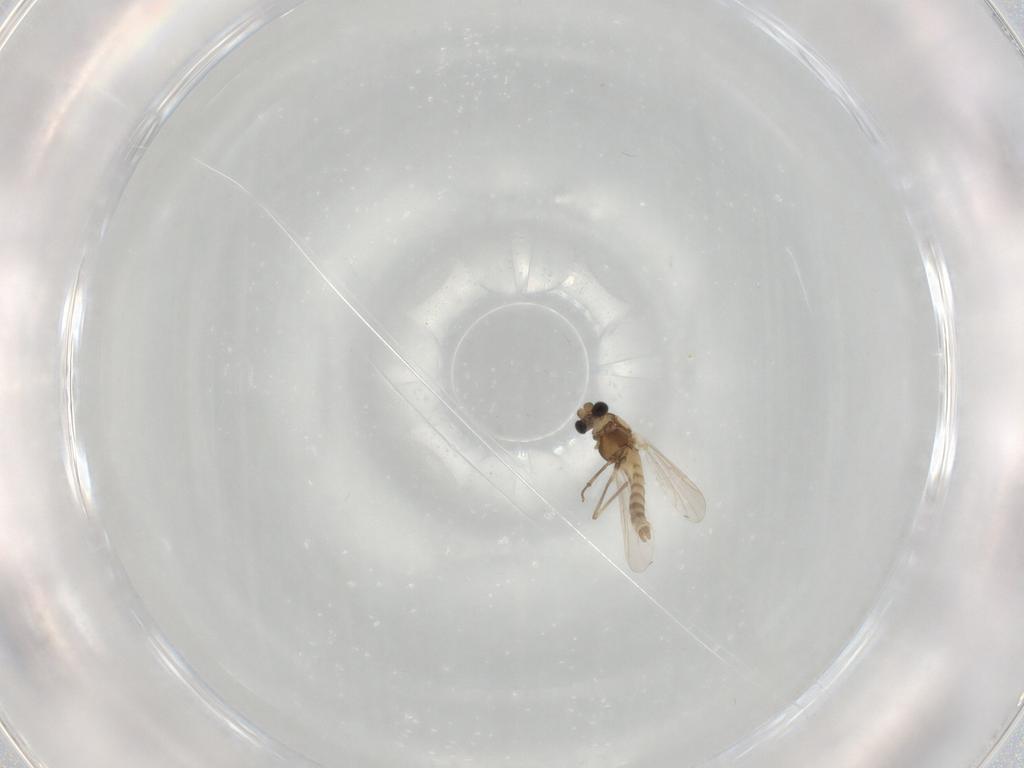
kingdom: Animalia
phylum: Arthropoda
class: Insecta
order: Diptera
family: Chironomidae
